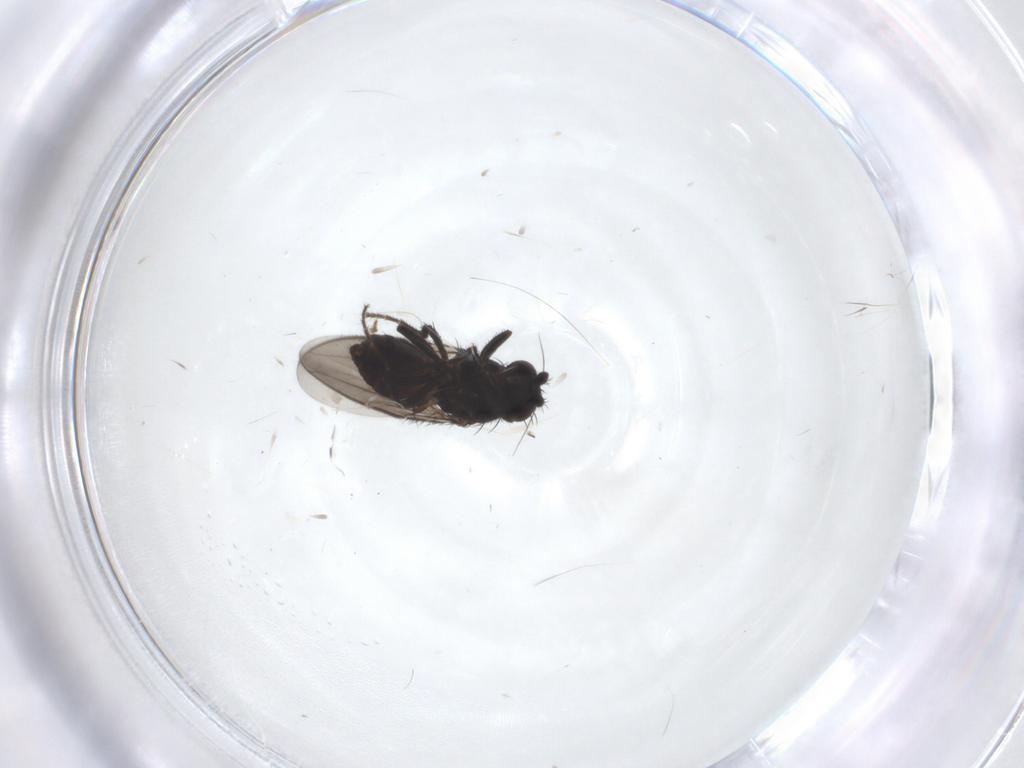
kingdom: Animalia
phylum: Arthropoda
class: Insecta
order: Diptera
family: Sphaeroceridae
